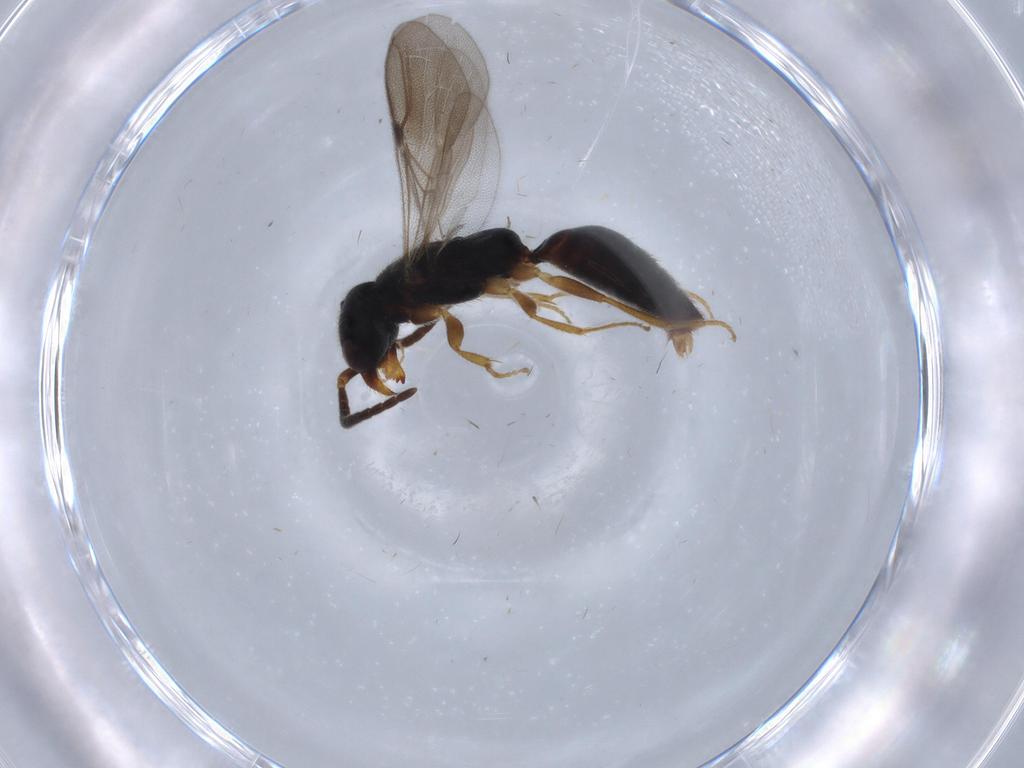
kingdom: Animalia
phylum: Arthropoda
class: Insecta
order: Hymenoptera
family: Bethylidae
